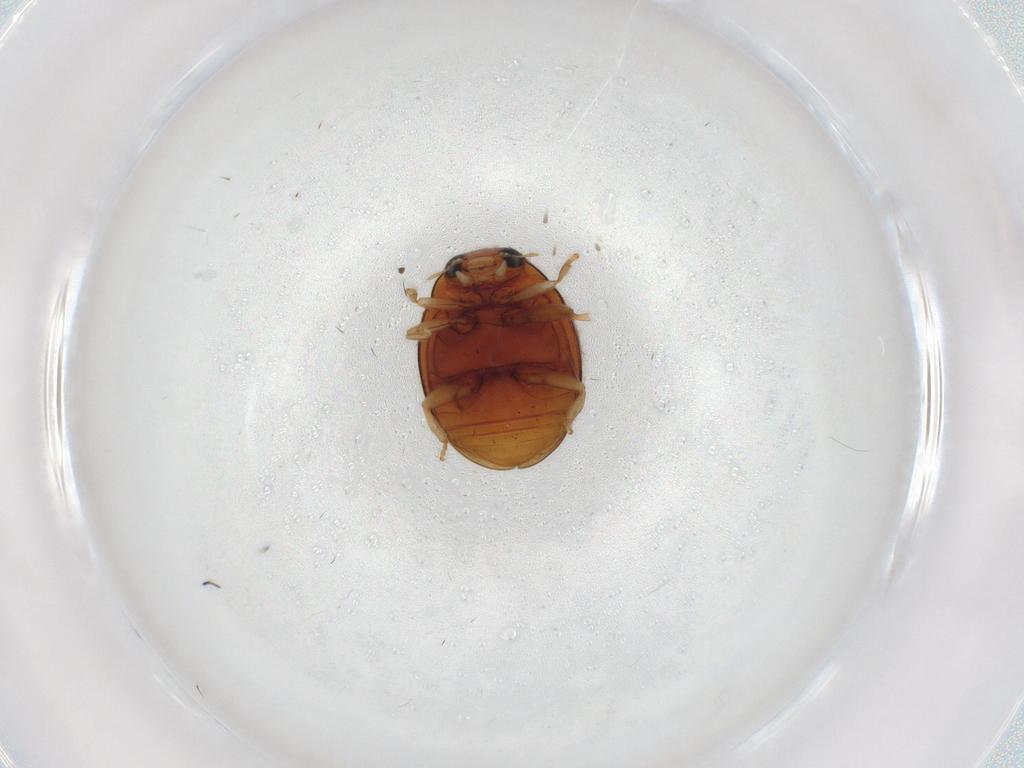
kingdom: Animalia
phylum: Arthropoda
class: Insecta
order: Coleoptera
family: Coccinellidae
